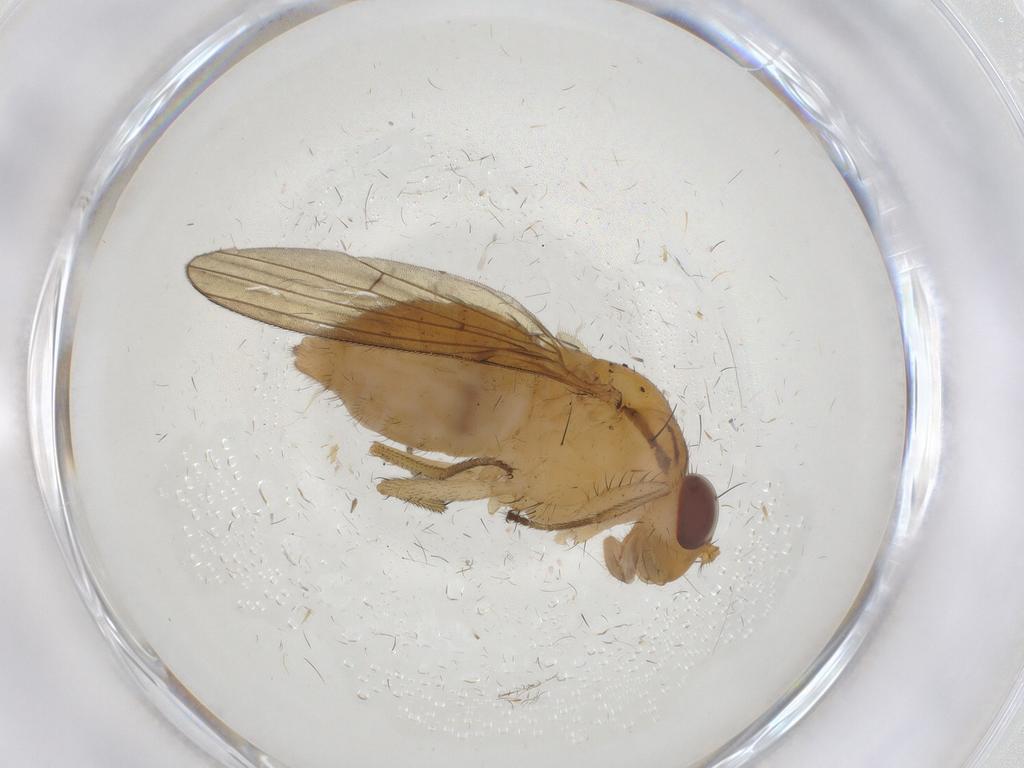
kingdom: Animalia
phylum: Arthropoda
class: Insecta
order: Diptera
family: Lauxaniidae
